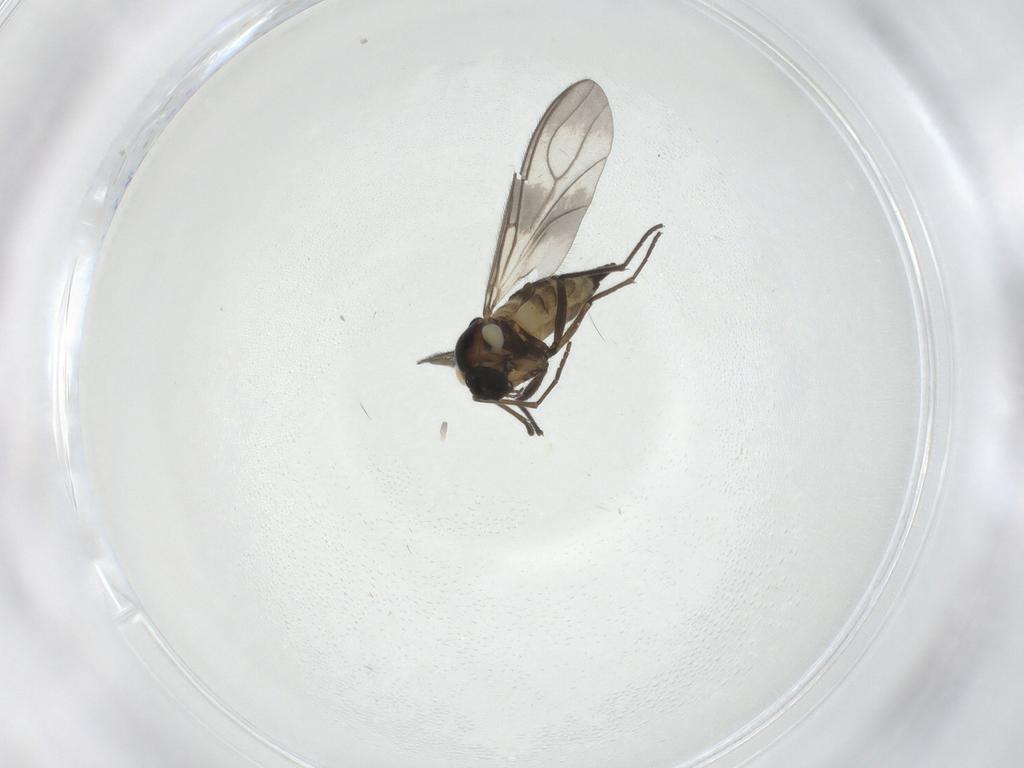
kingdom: Animalia
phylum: Arthropoda
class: Insecta
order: Diptera
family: Sciaridae
